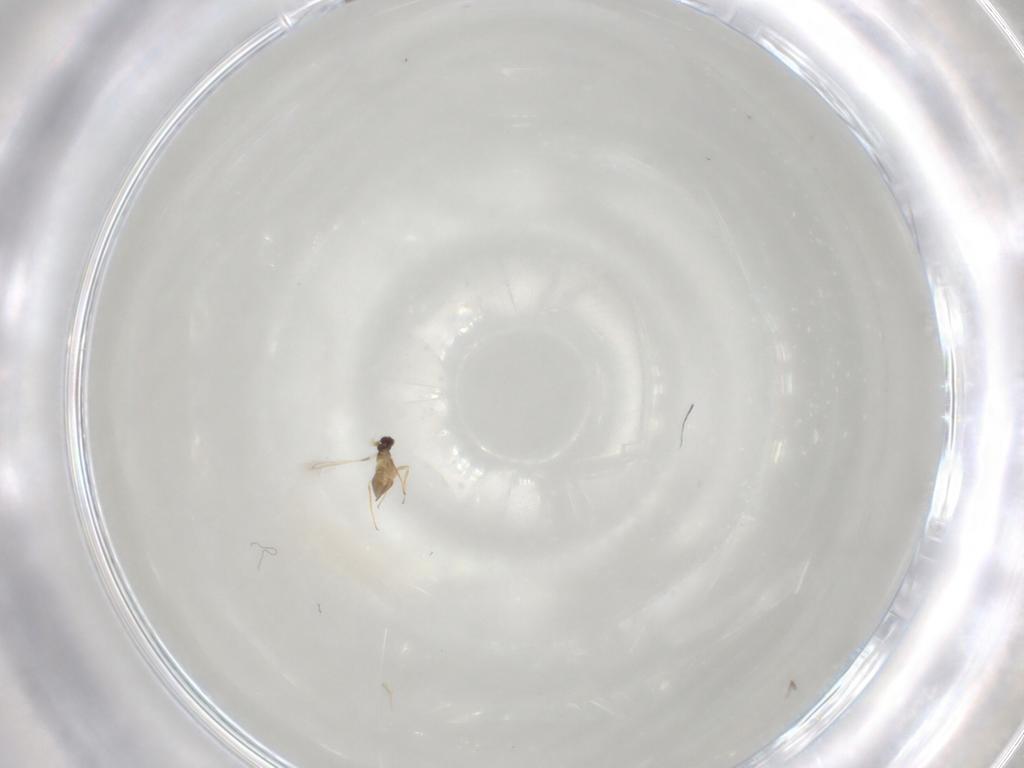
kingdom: Animalia
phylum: Arthropoda
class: Insecta
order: Hymenoptera
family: Mymaridae
